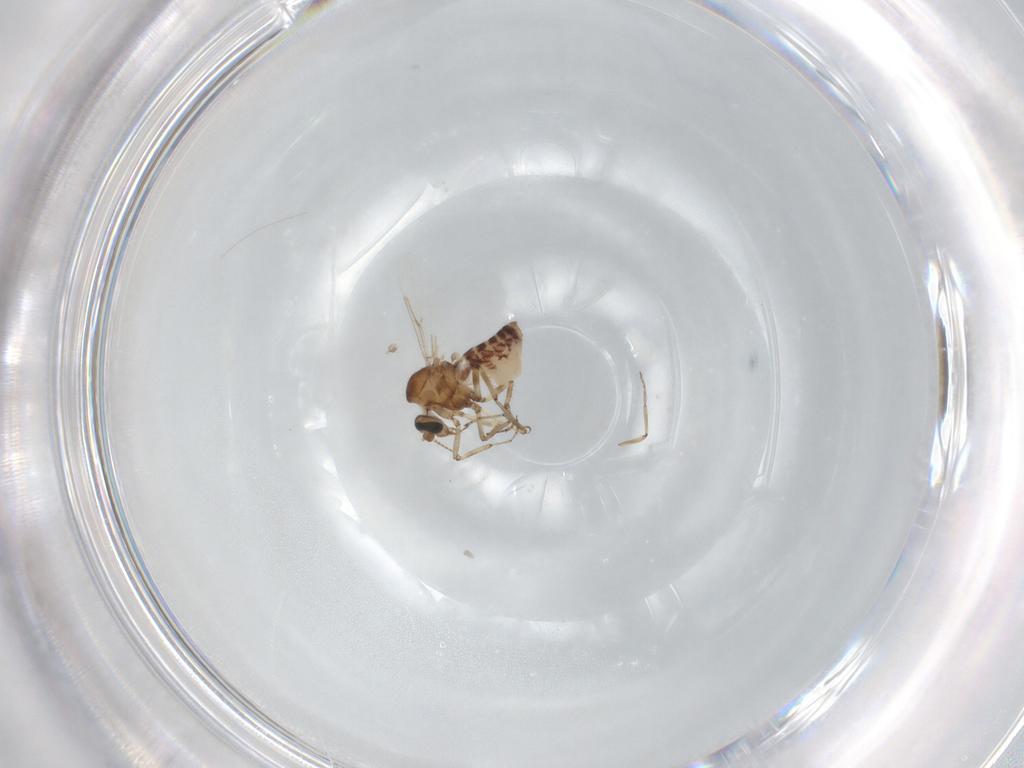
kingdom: Animalia
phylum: Arthropoda
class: Insecta
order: Diptera
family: Ceratopogonidae
